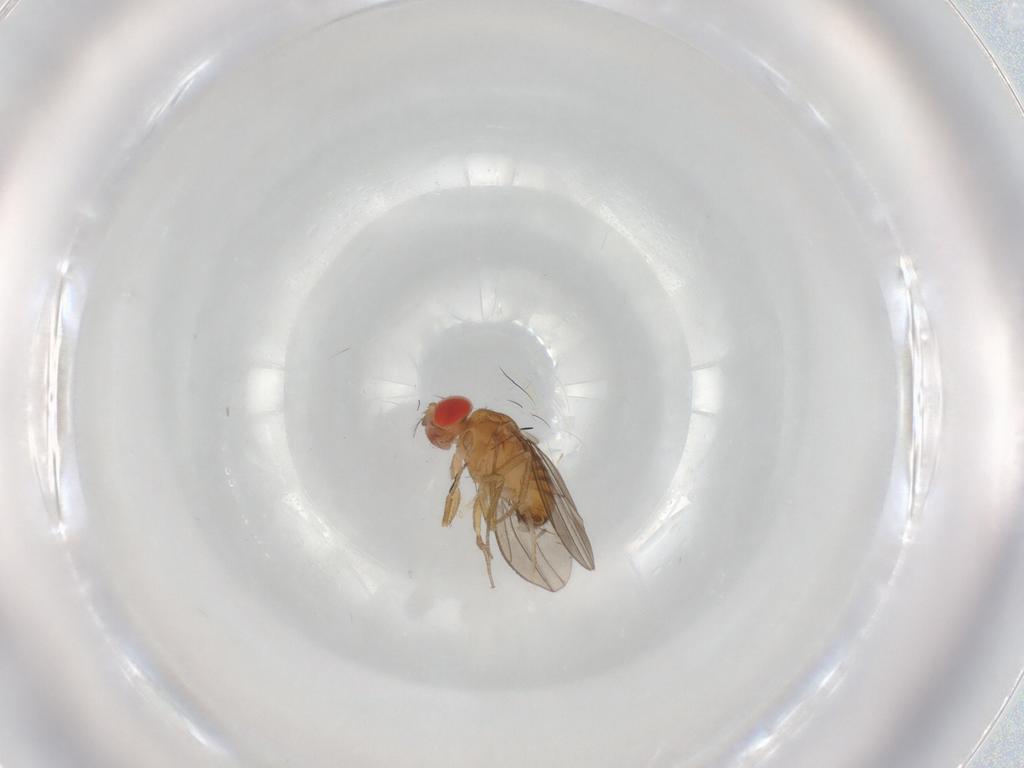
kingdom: Animalia
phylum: Arthropoda
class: Insecta
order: Diptera
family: Drosophilidae
